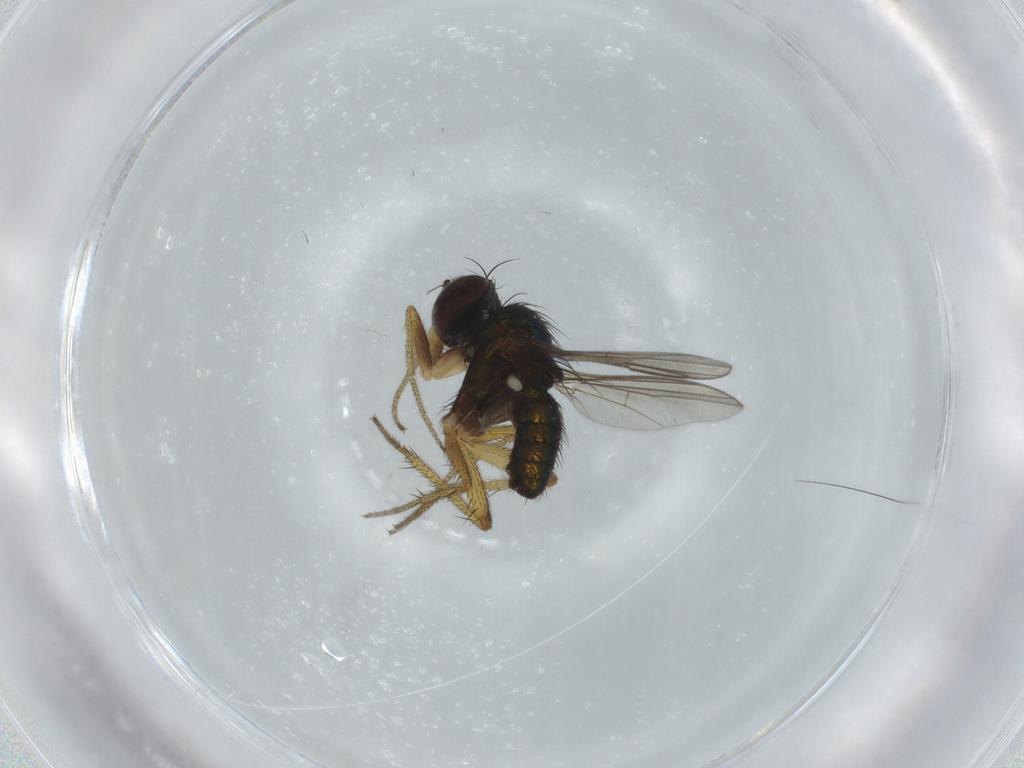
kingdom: Animalia
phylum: Arthropoda
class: Insecta
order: Diptera
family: Dolichopodidae
